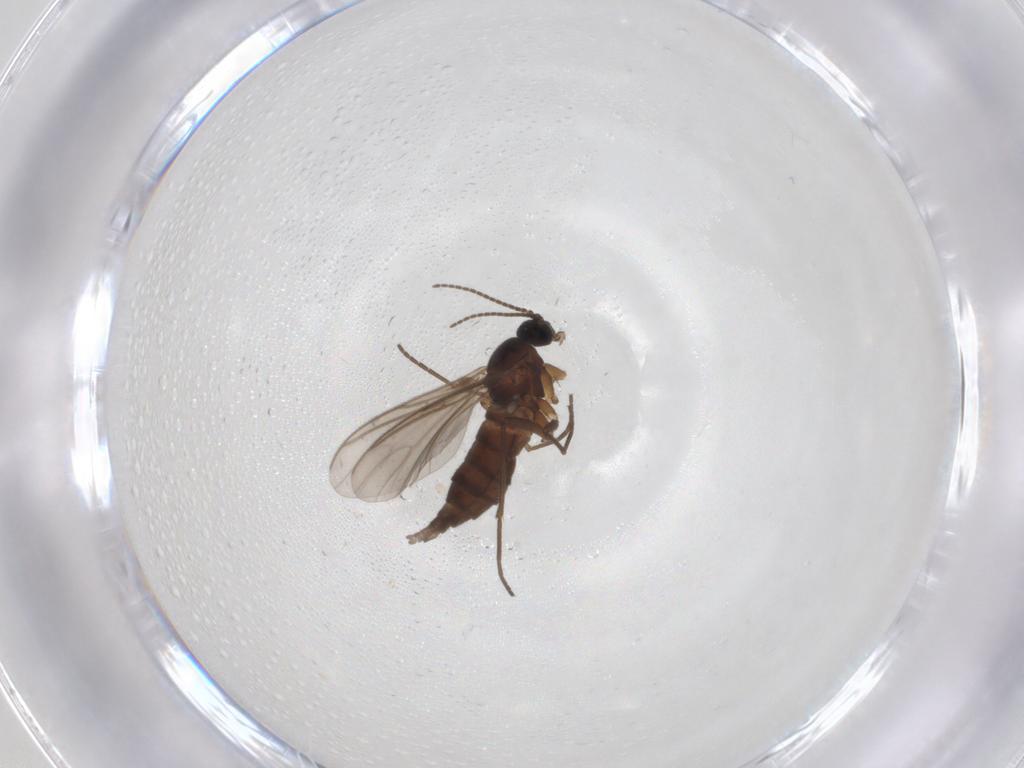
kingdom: Animalia
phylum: Arthropoda
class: Insecta
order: Diptera
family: Sciaridae
